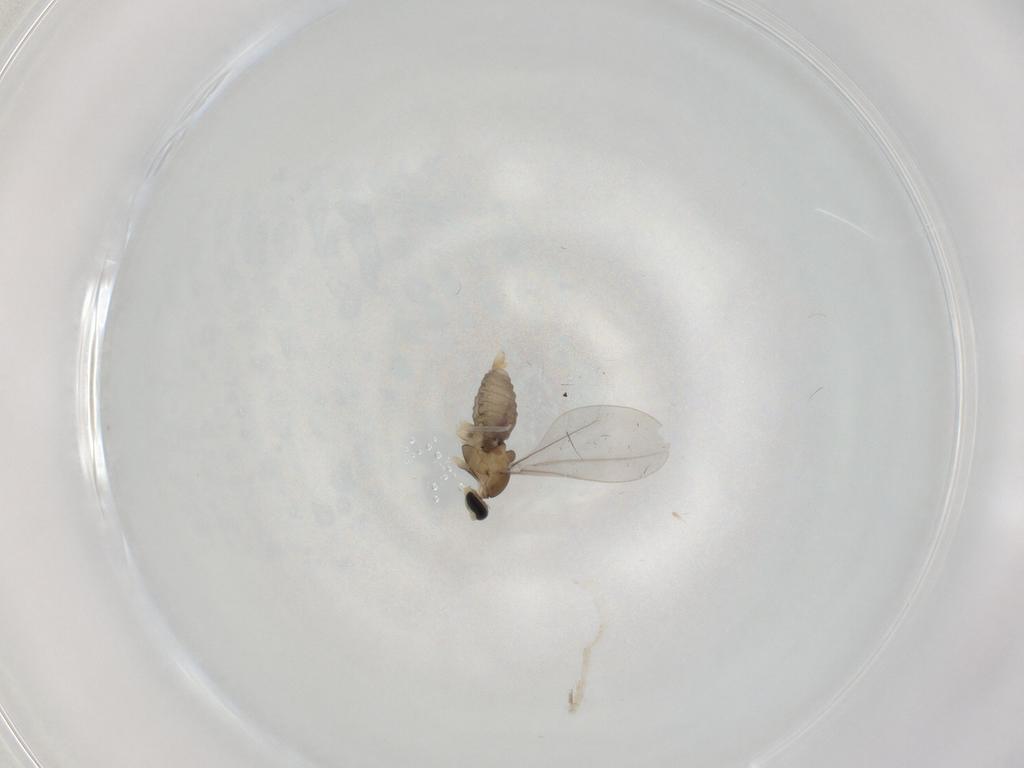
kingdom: Animalia
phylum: Arthropoda
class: Insecta
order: Diptera
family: Cecidomyiidae
